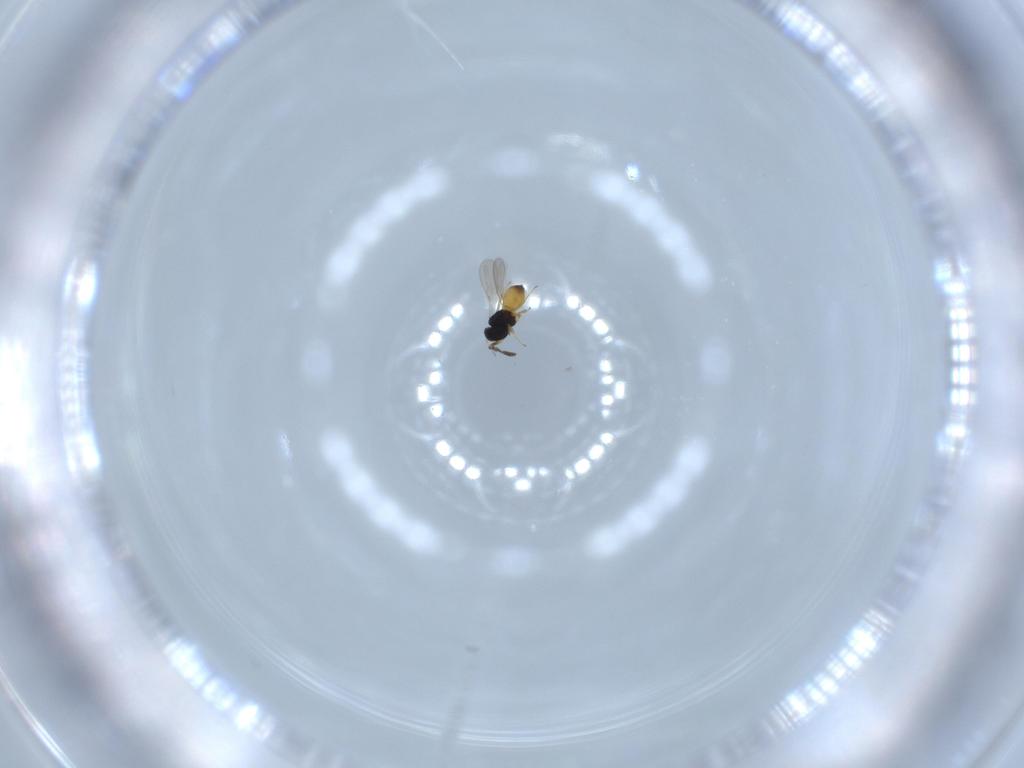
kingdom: Animalia
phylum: Arthropoda
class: Insecta
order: Hymenoptera
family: Scelionidae
